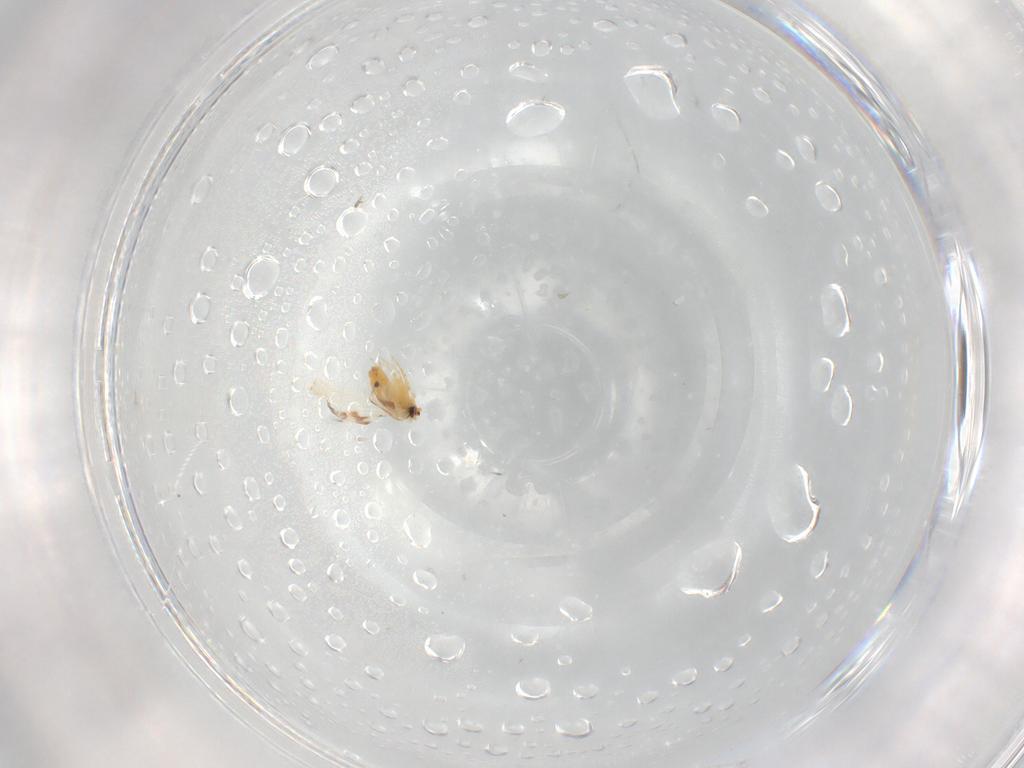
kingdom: Animalia
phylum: Arthropoda
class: Insecta
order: Hemiptera
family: Aleyrodidae
